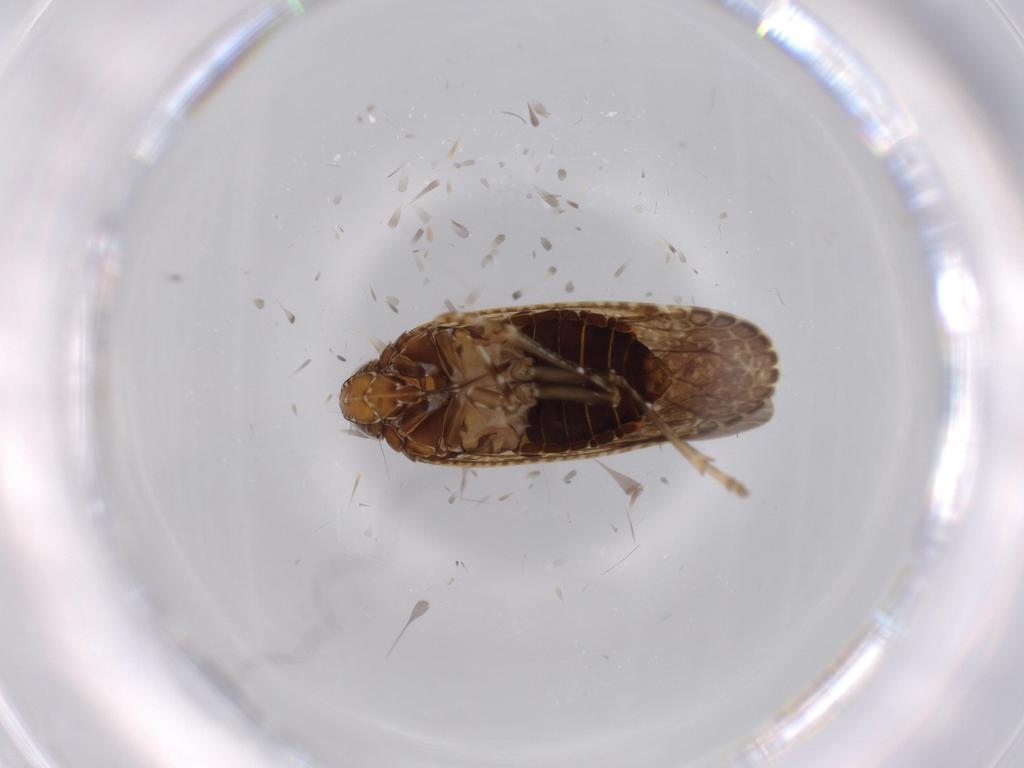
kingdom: Animalia
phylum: Arthropoda
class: Insecta
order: Hemiptera
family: Achilidae
